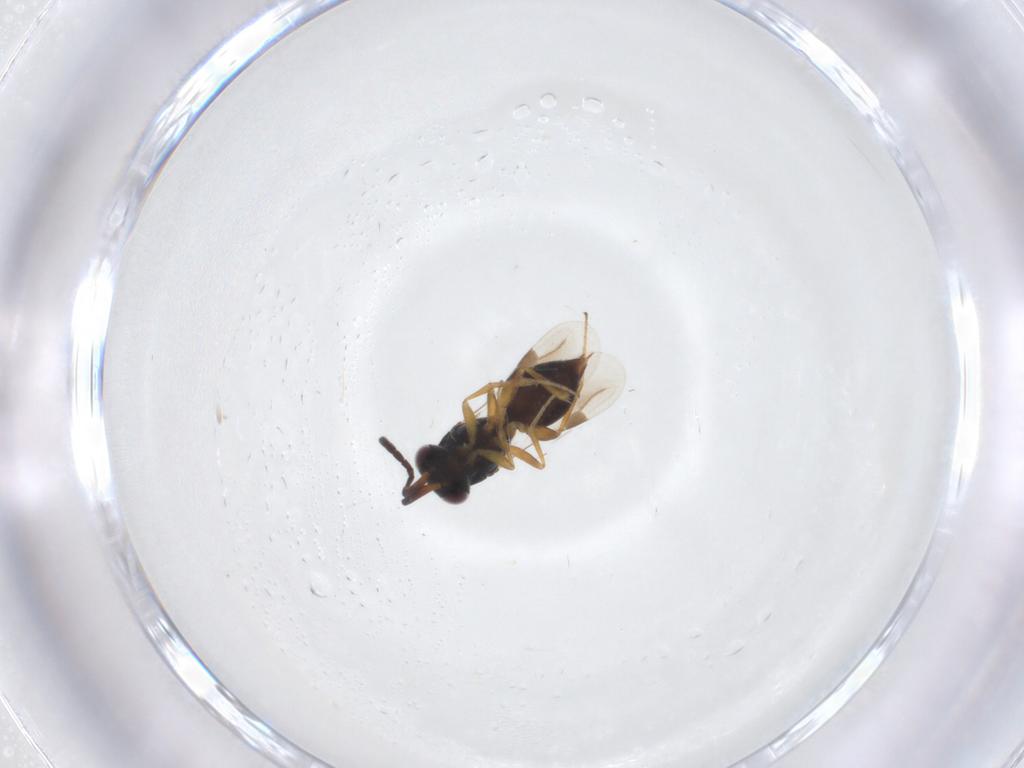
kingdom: Animalia
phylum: Arthropoda
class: Insecta
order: Hymenoptera
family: Megaspilidae
